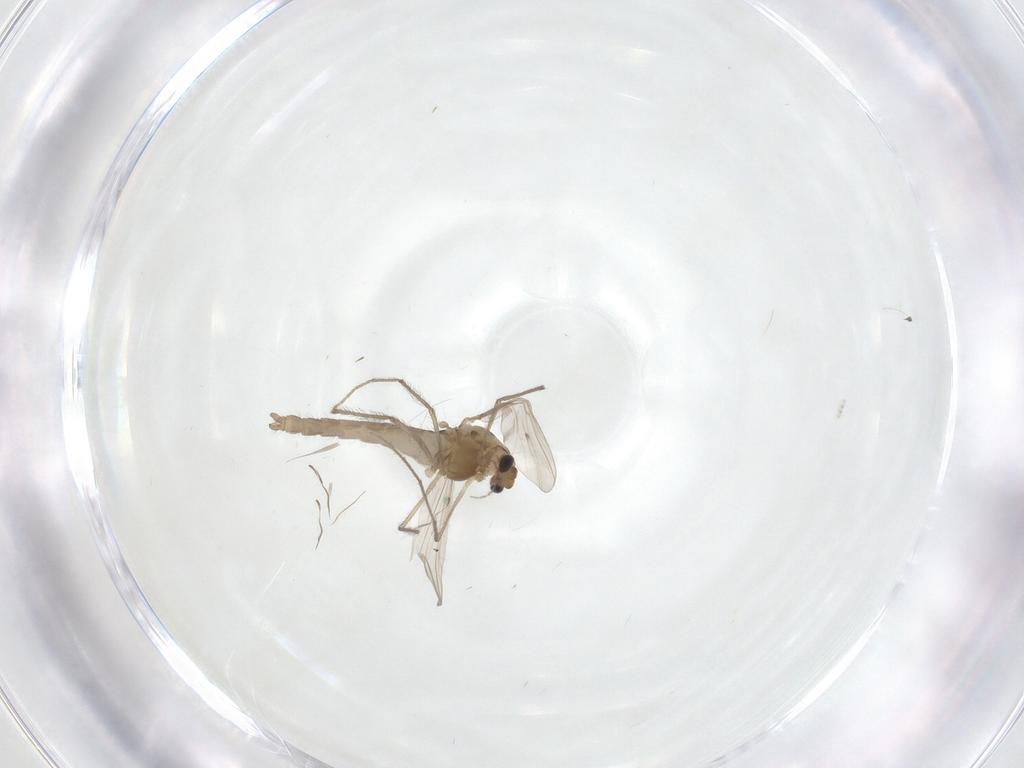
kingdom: Animalia
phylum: Arthropoda
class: Insecta
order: Diptera
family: Chironomidae
